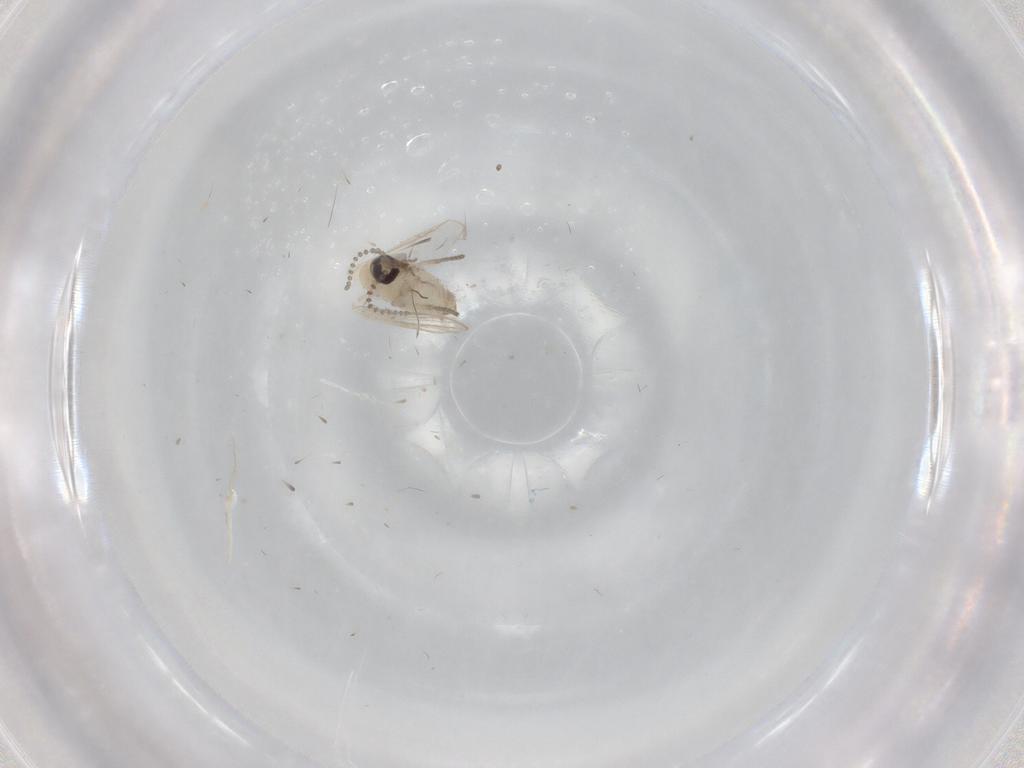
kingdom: Animalia
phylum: Arthropoda
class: Insecta
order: Diptera
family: Psychodidae
